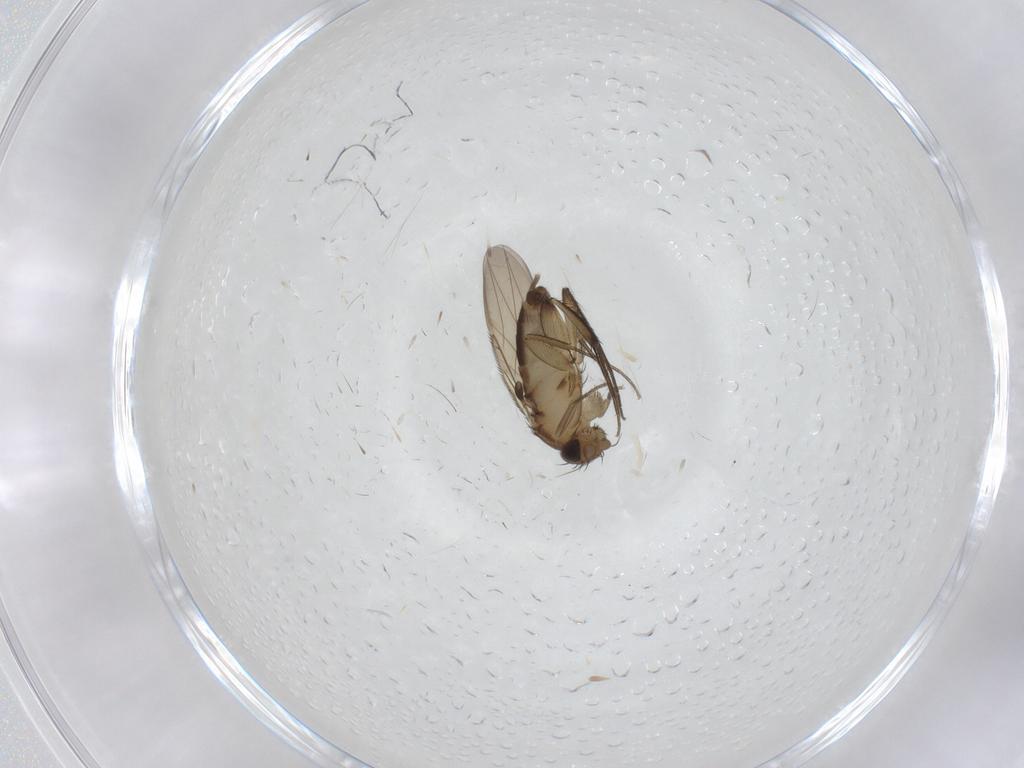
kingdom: Animalia
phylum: Arthropoda
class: Insecta
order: Diptera
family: Phoridae
